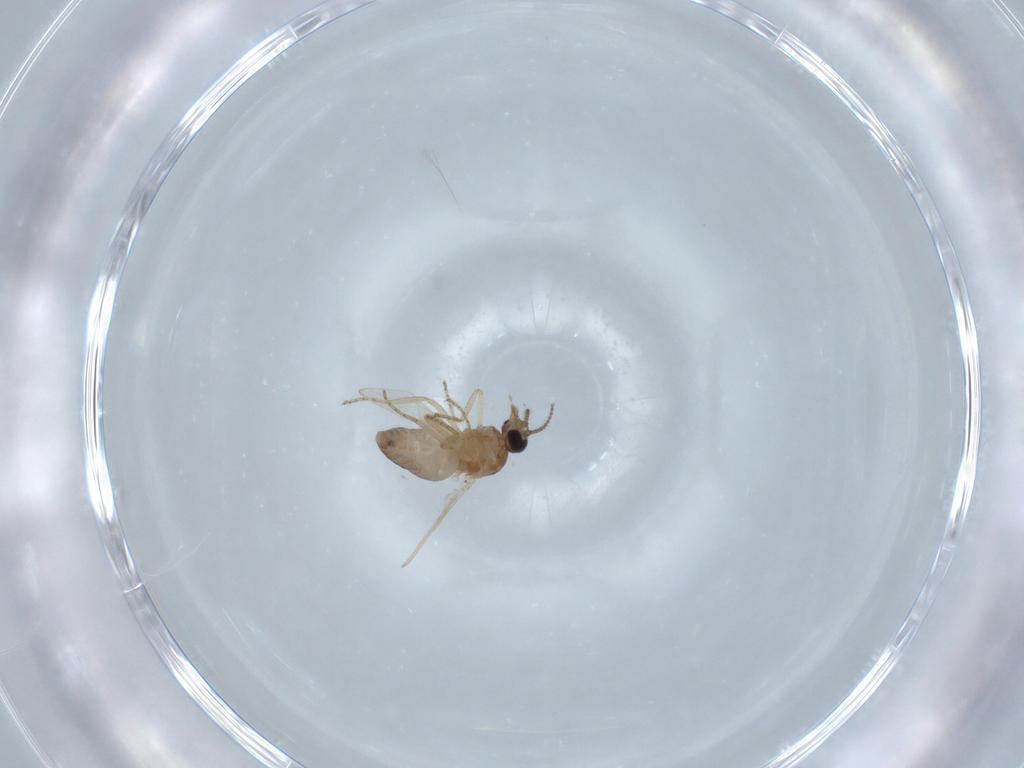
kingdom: Animalia
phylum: Arthropoda
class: Insecta
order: Diptera
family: Ceratopogonidae
